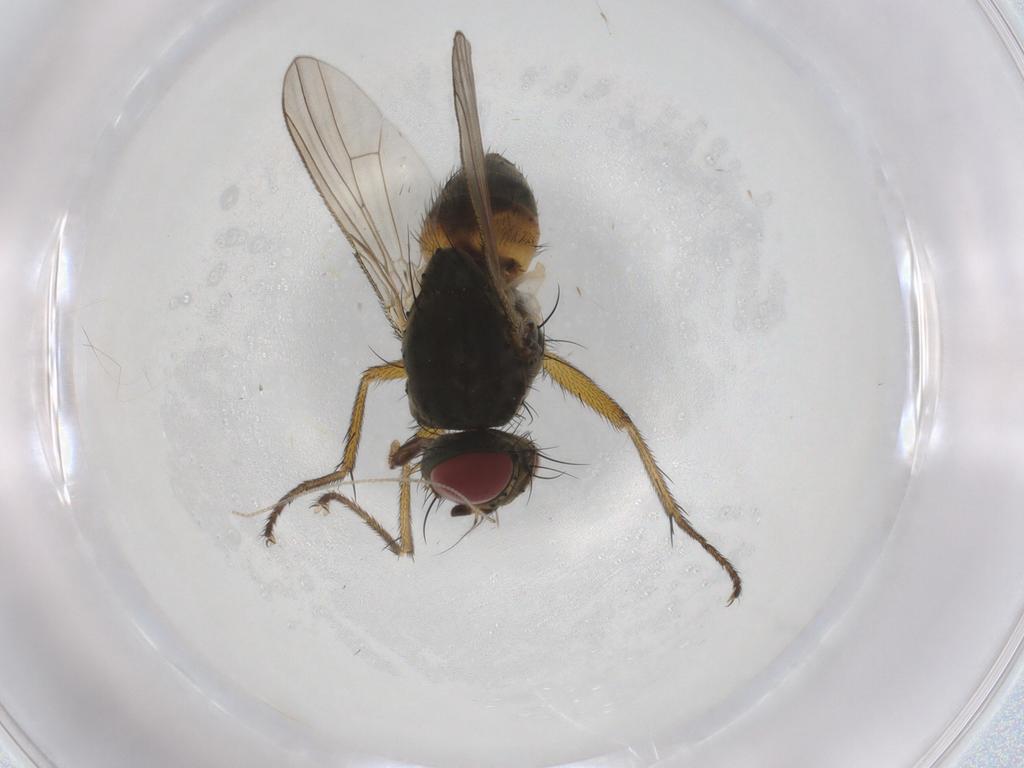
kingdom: Animalia
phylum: Arthropoda
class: Insecta
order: Diptera
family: Muscidae
